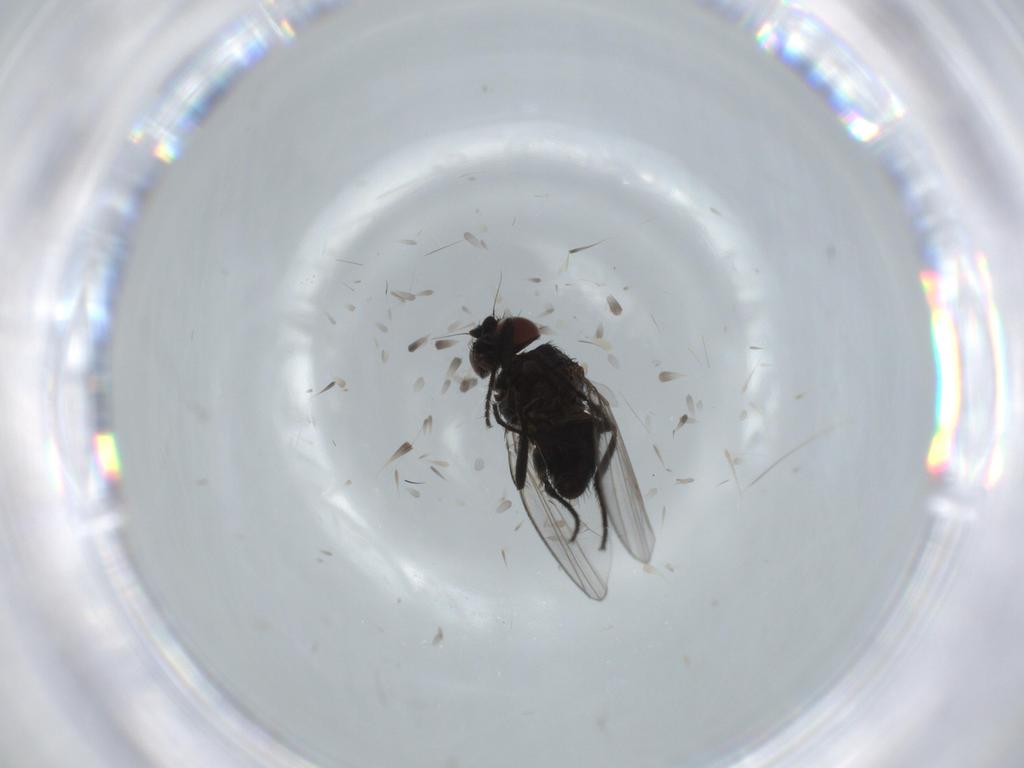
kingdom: Animalia
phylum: Arthropoda
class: Insecta
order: Diptera
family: Milichiidae
